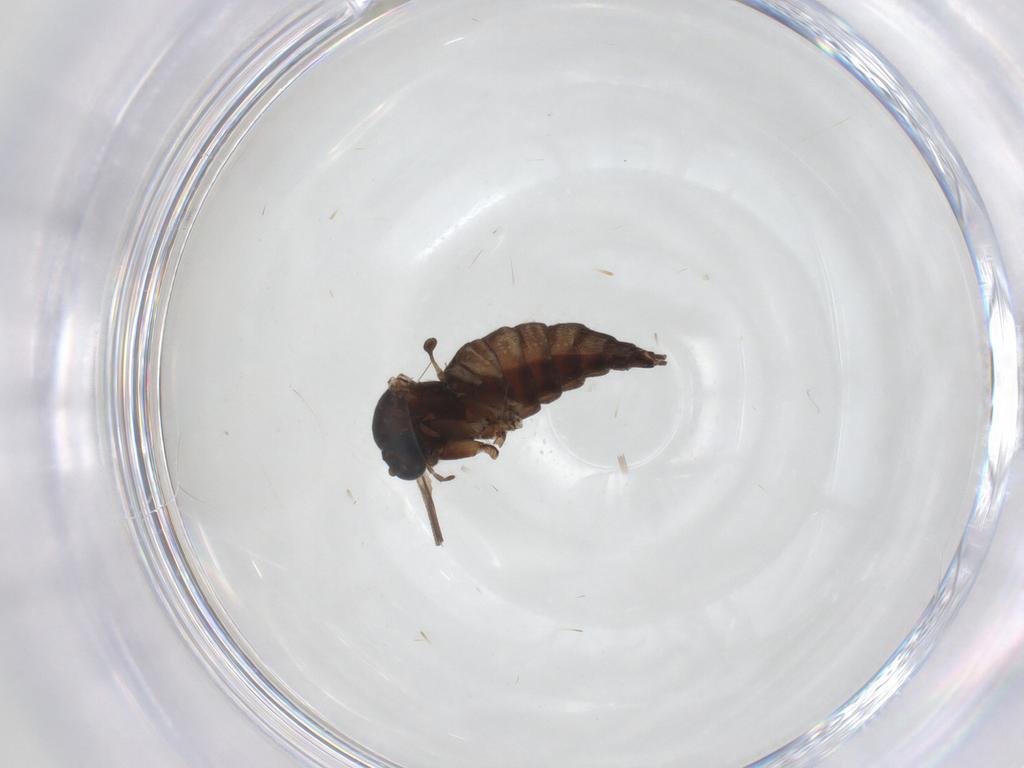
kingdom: Animalia
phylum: Arthropoda
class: Insecta
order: Diptera
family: Sciaridae
